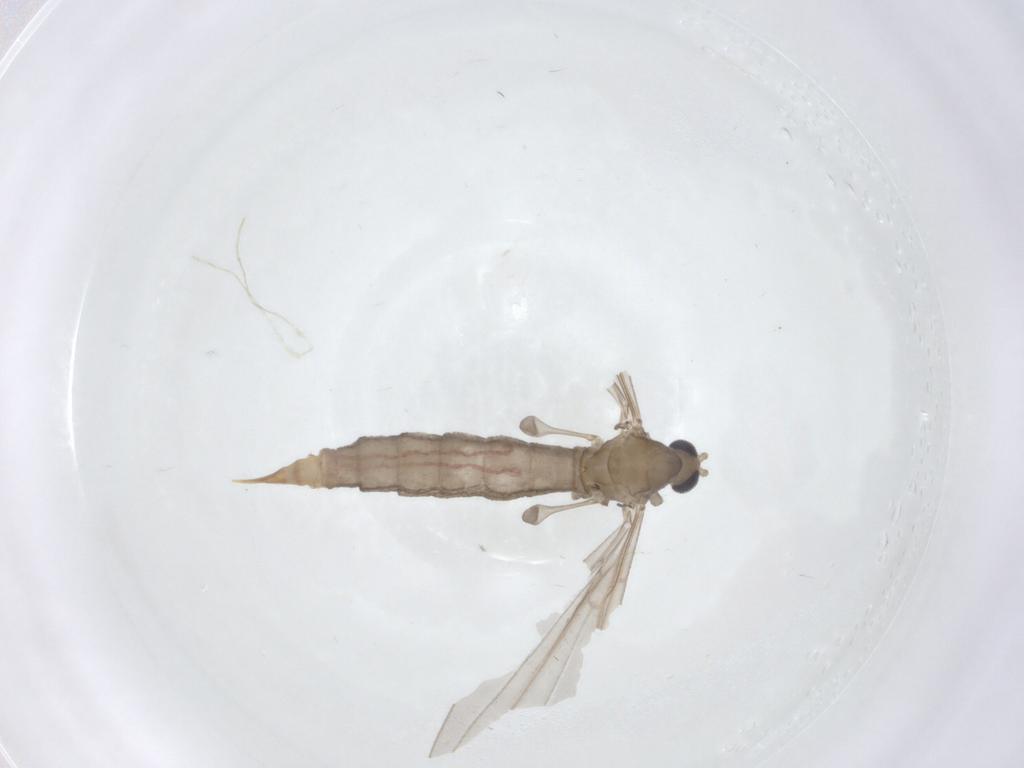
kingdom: Animalia
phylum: Arthropoda
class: Insecta
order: Diptera
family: Limoniidae
